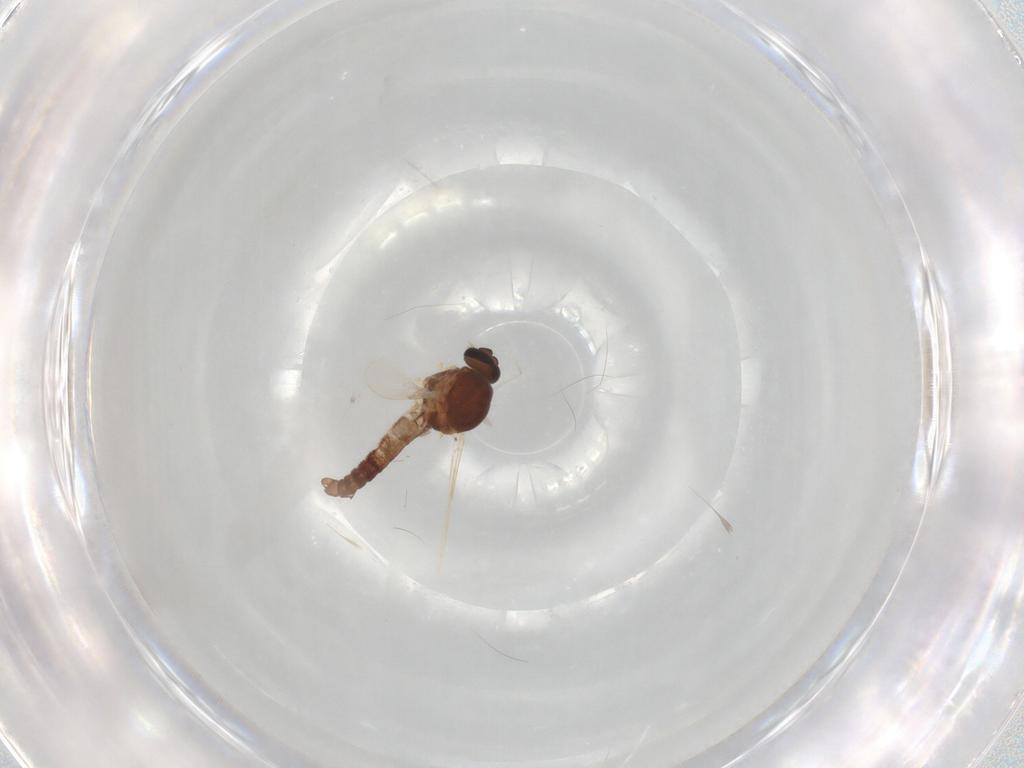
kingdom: Animalia
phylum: Arthropoda
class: Insecta
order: Diptera
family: Ceratopogonidae
